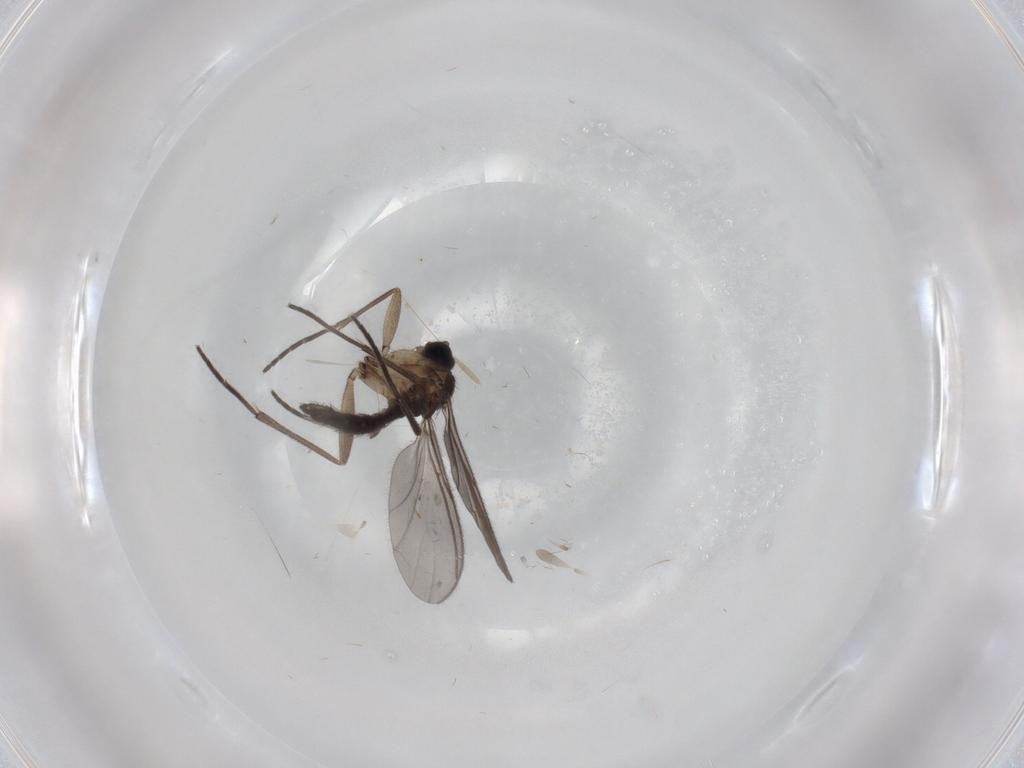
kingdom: Animalia
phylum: Arthropoda
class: Insecta
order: Diptera
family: Sciaridae
